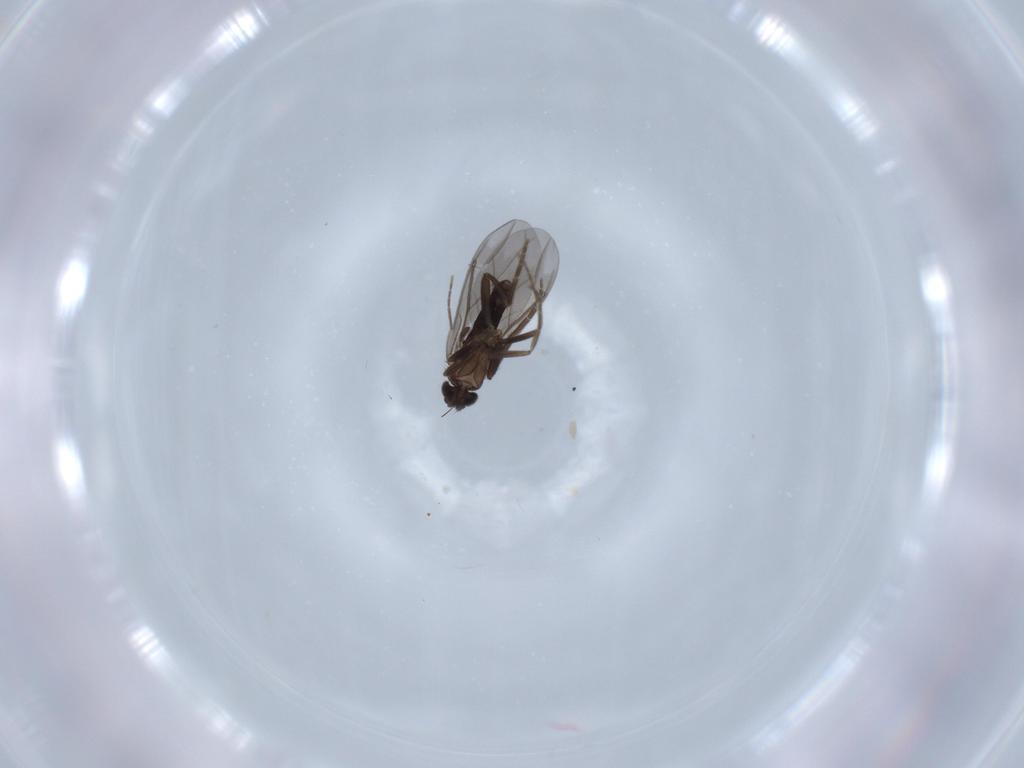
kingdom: Animalia
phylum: Arthropoda
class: Insecta
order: Diptera
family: Phoridae
